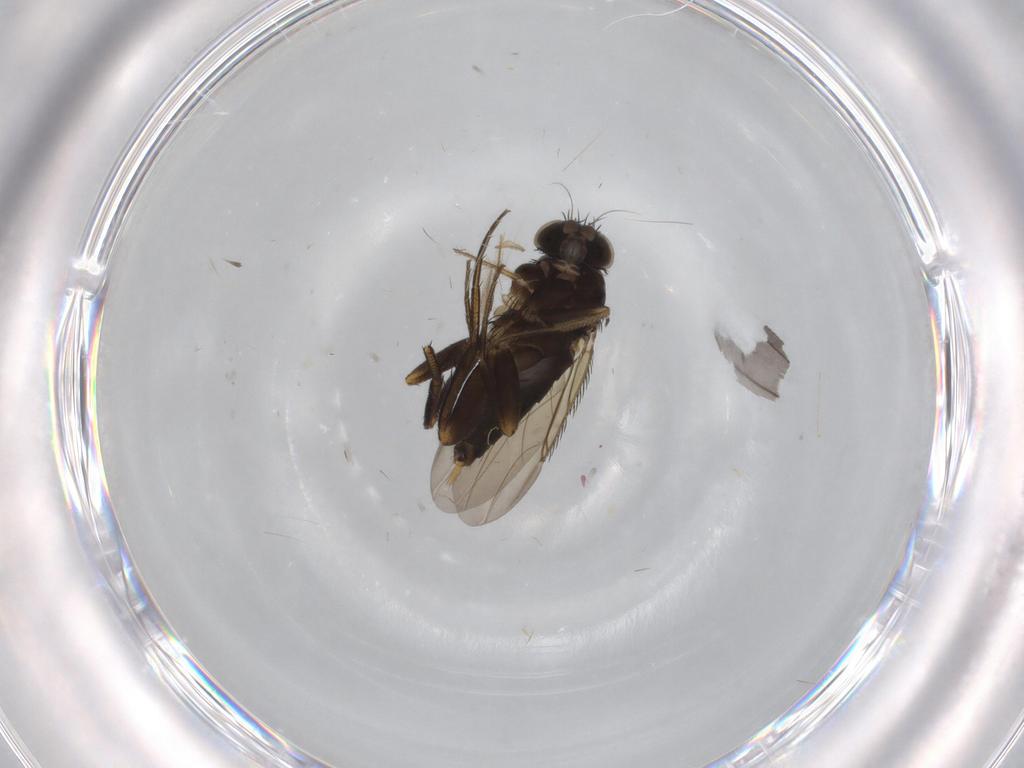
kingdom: Animalia
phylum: Arthropoda
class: Insecta
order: Diptera
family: Phoridae
